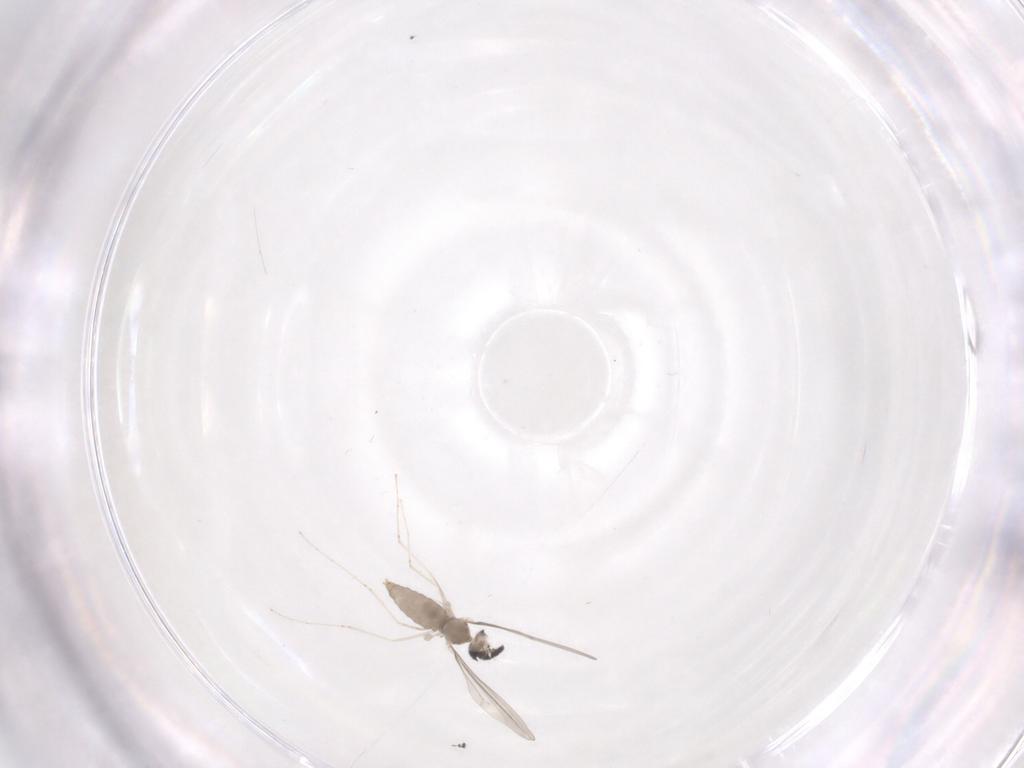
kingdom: Animalia
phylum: Arthropoda
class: Insecta
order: Diptera
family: Cecidomyiidae
